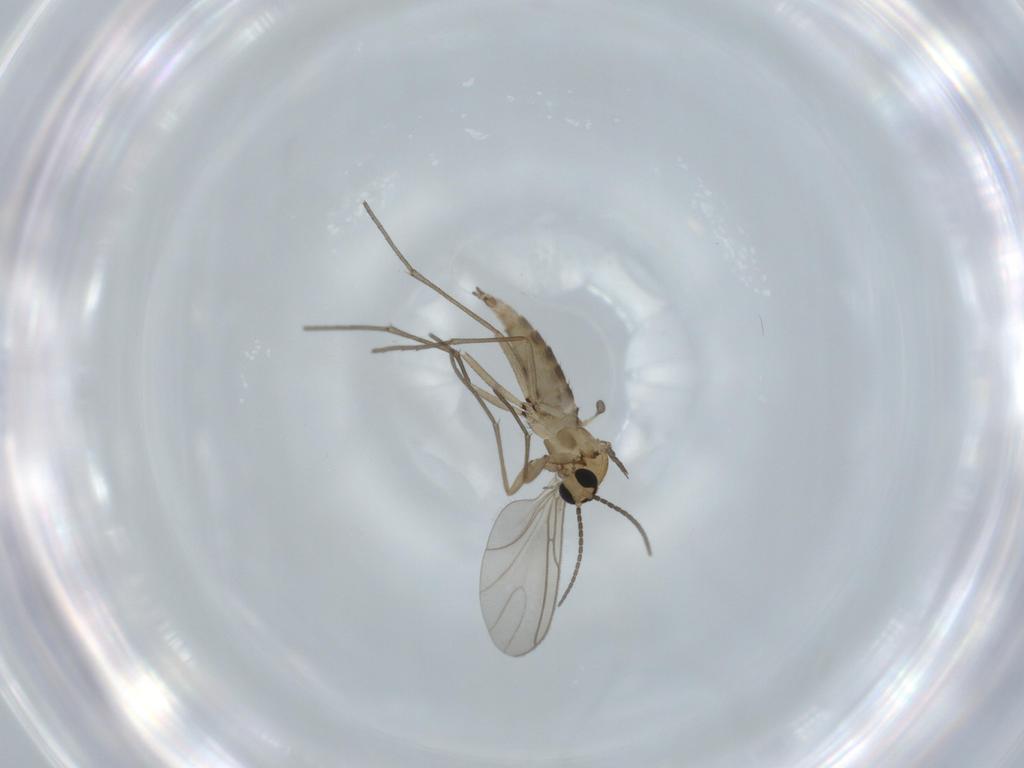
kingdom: Animalia
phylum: Arthropoda
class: Insecta
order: Diptera
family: Sciaridae
